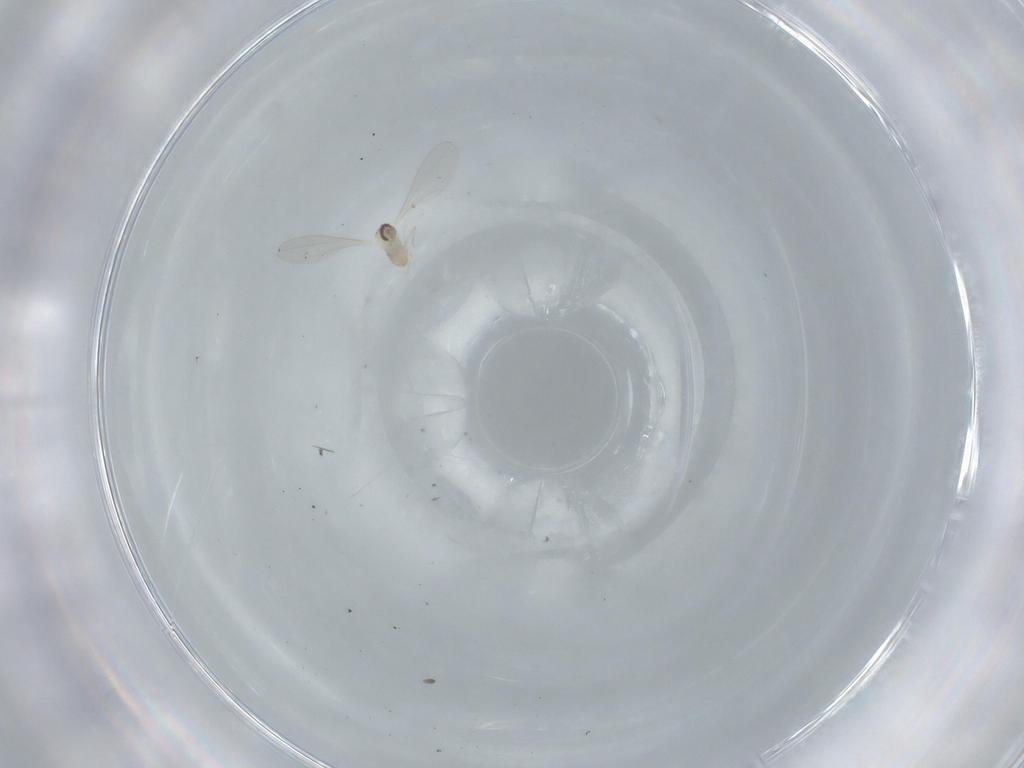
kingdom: Animalia
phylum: Arthropoda
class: Insecta
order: Diptera
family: Cecidomyiidae
